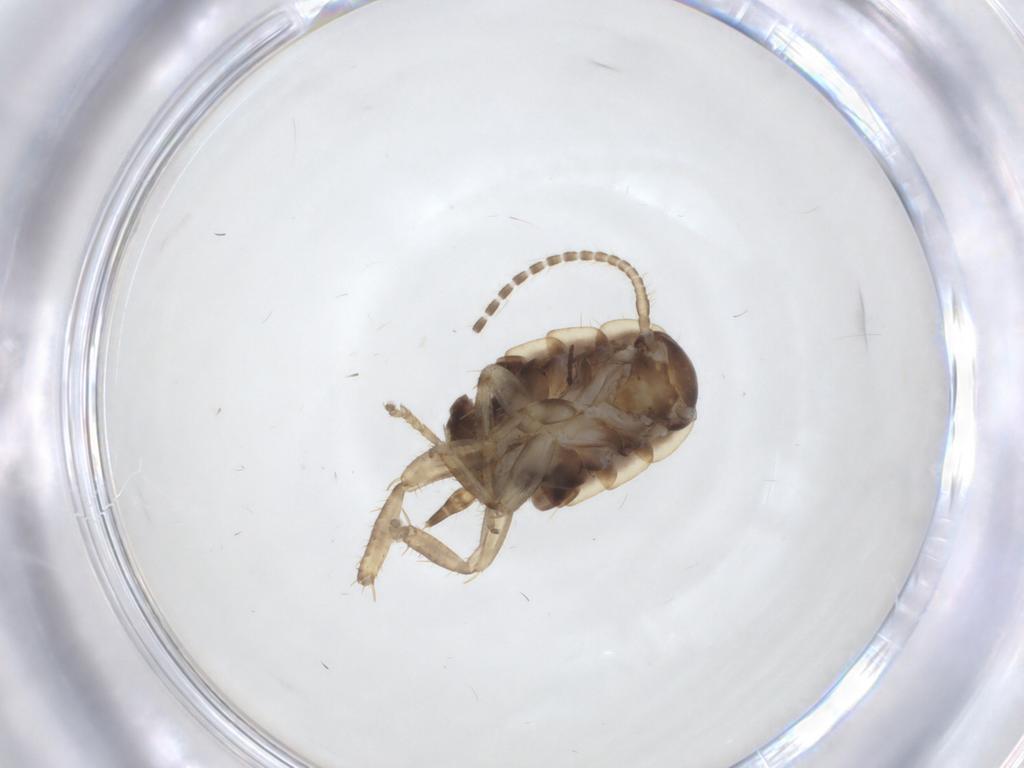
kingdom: Animalia
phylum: Arthropoda
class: Insecta
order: Blattodea
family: Ectobiidae
